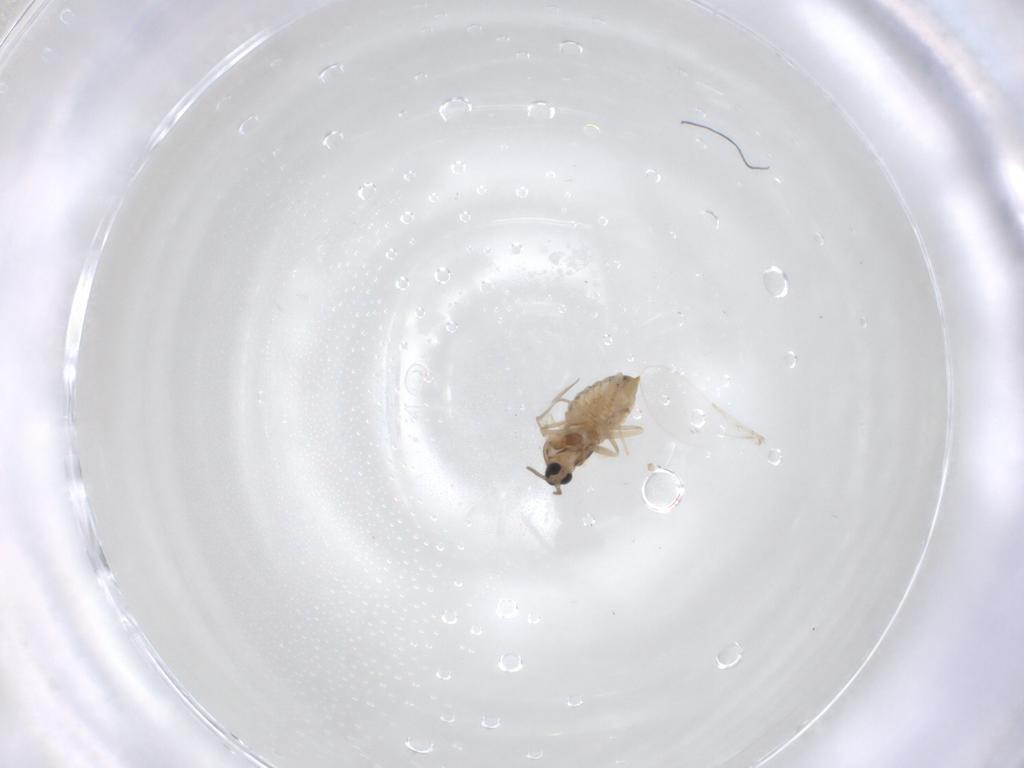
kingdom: Animalia
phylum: Arthropoda
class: Insecta
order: Diptera
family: Cecidomyiidae
